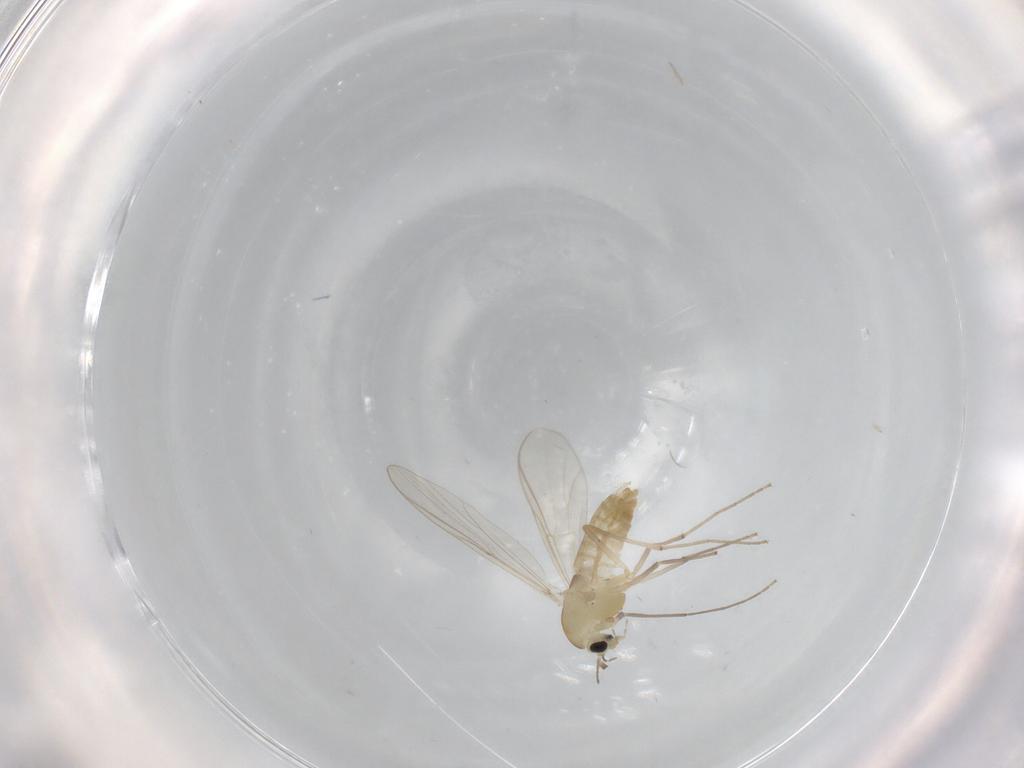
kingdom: Animalia
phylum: Arthropoda
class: Insecta
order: Diptera
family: Chironomidae
